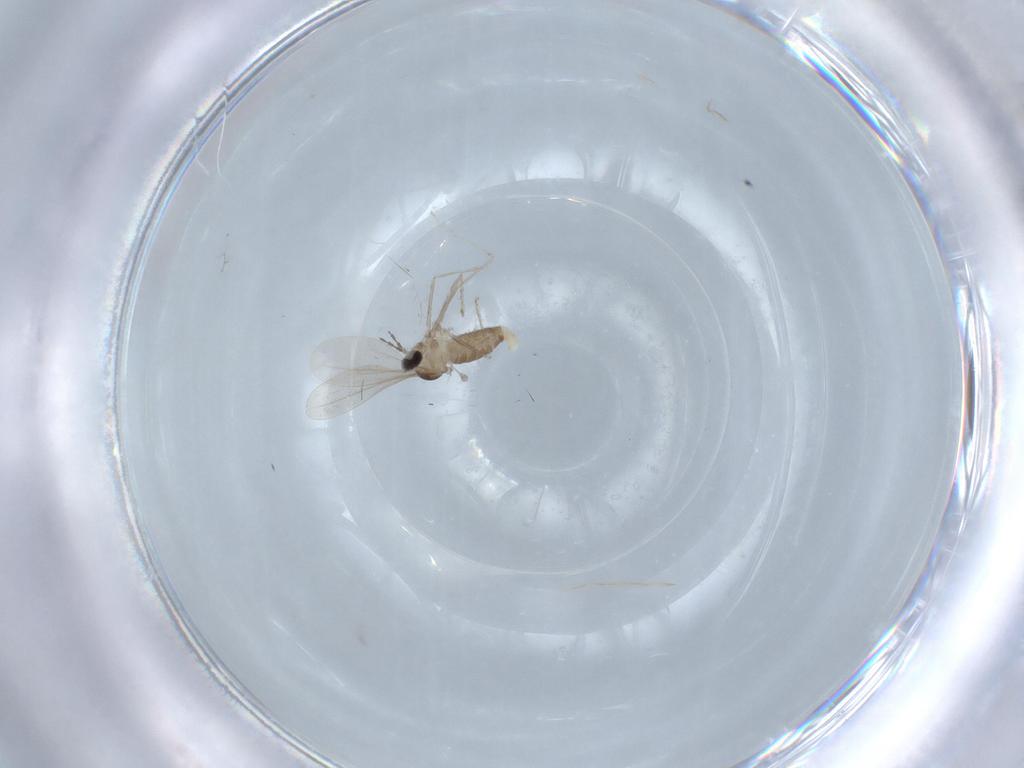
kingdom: Animalia
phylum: Arthropoda
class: Insecta
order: Diptera
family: Cecidomyiidae
